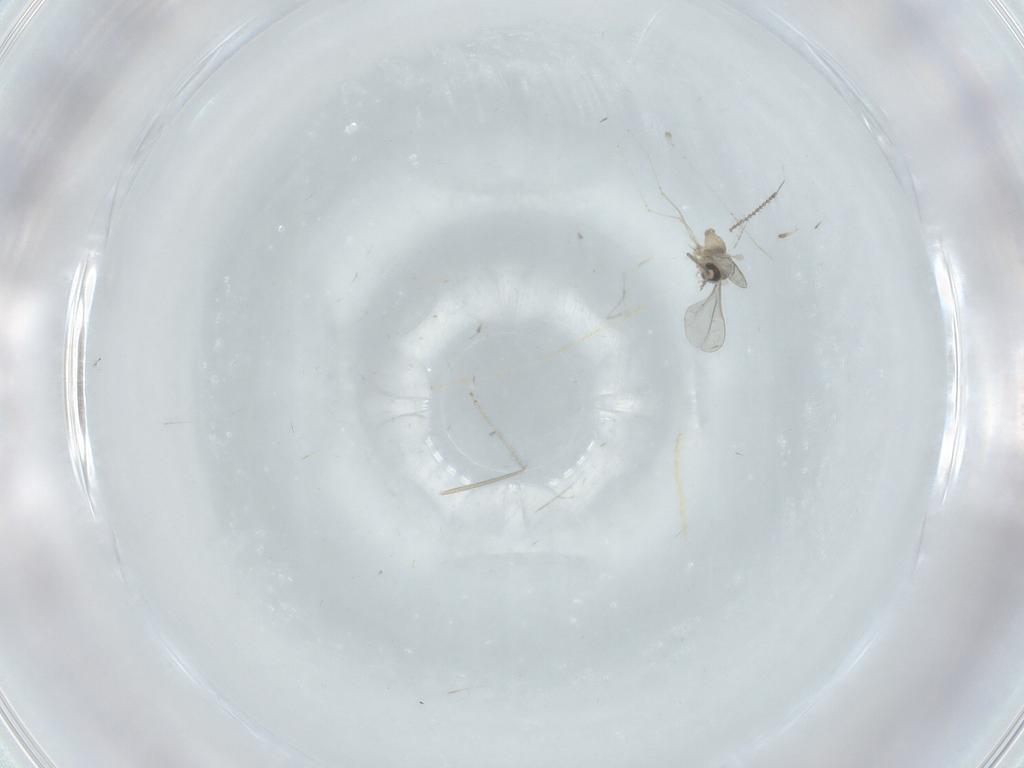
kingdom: Animalia
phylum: Arthropoda
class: Insecta
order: Diptera
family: Chironomidae
